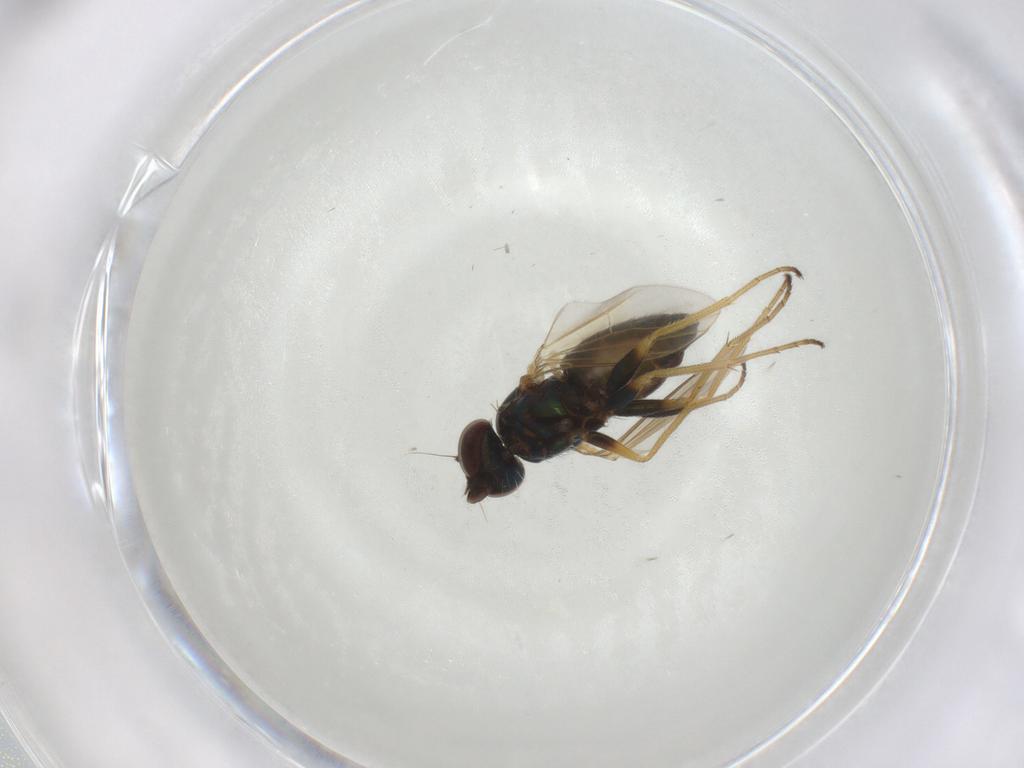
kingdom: Animalia
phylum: Arthropoda
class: Insecta
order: Diptera
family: Dolichopodidae
